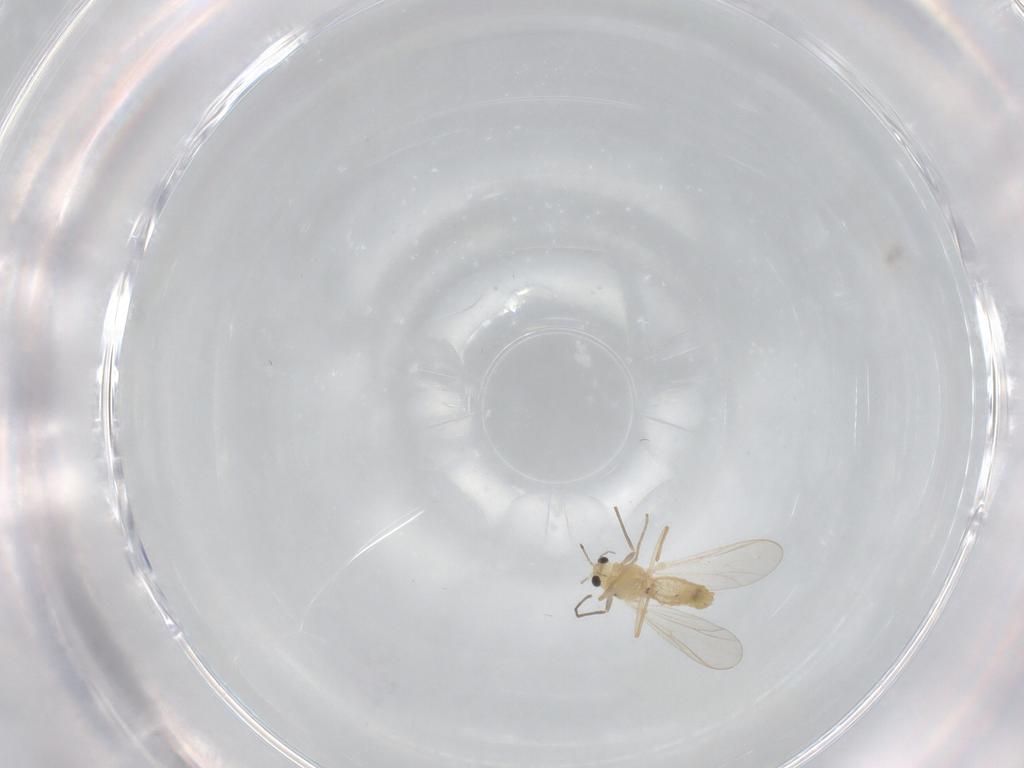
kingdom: Animalia
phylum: Arthropoda
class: Insecta
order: Diptera
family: Cecidomyiidae
